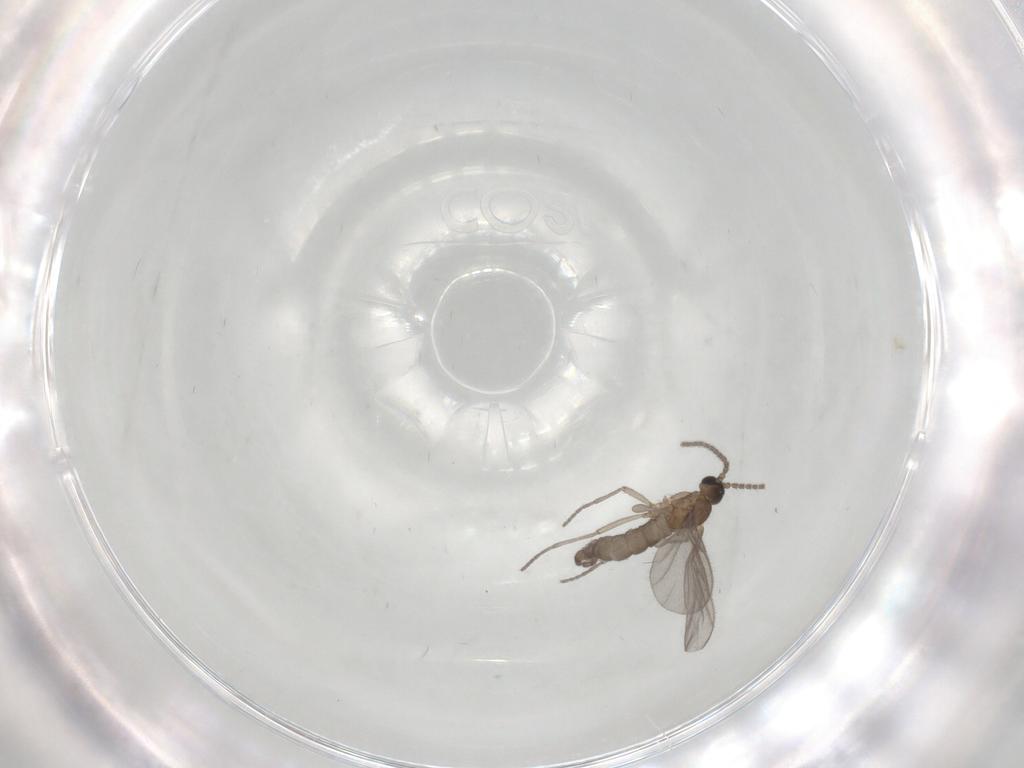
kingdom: Animalia
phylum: Arthropoda
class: Insecta
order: Diptera
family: Sciaridae
